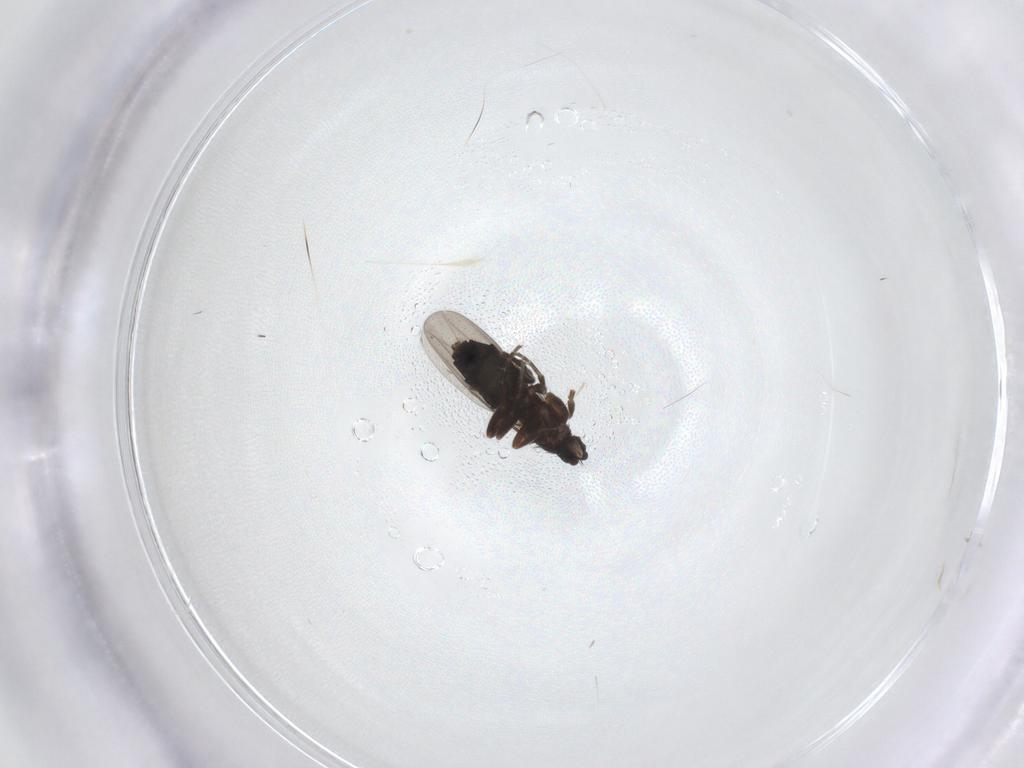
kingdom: Animalia
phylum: Arthropoda
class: Insecta
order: Diptera
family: Phoridae
